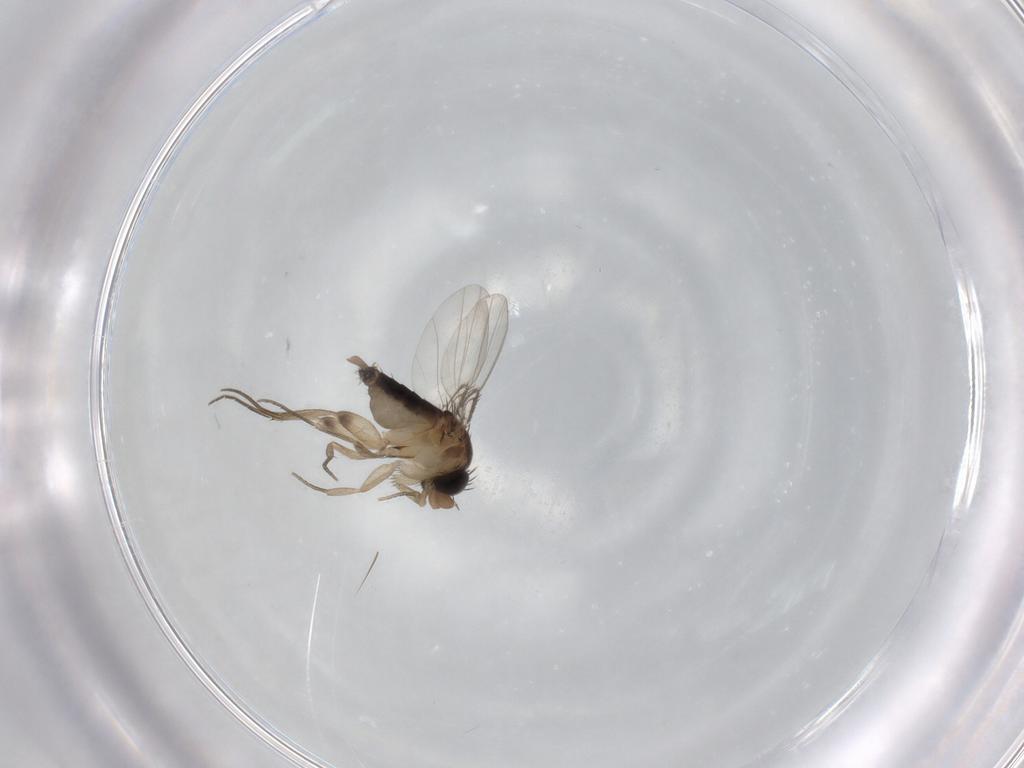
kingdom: Animalia
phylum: Arthropoda
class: Insecta
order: Diptera
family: Phoridae
